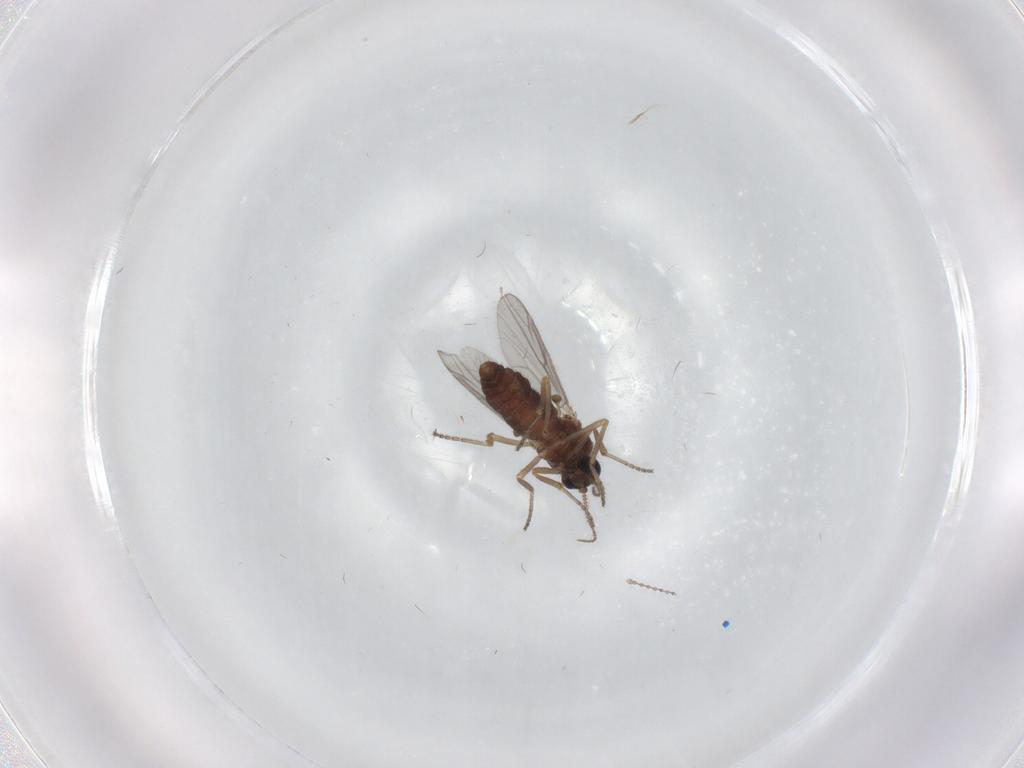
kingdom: Animalia
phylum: Arthropoda
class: Insecta
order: Diptera
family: Ceratopogonidae
